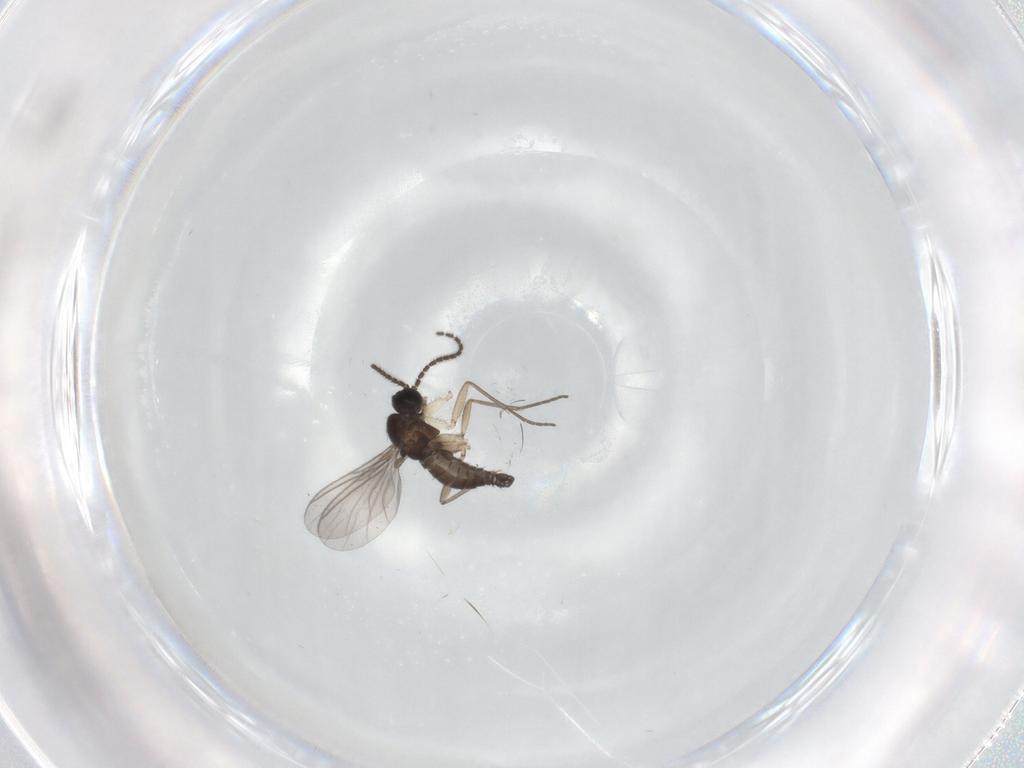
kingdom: Animalia
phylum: Arthropoda
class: Insecta
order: Diptera
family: Sciaridae
